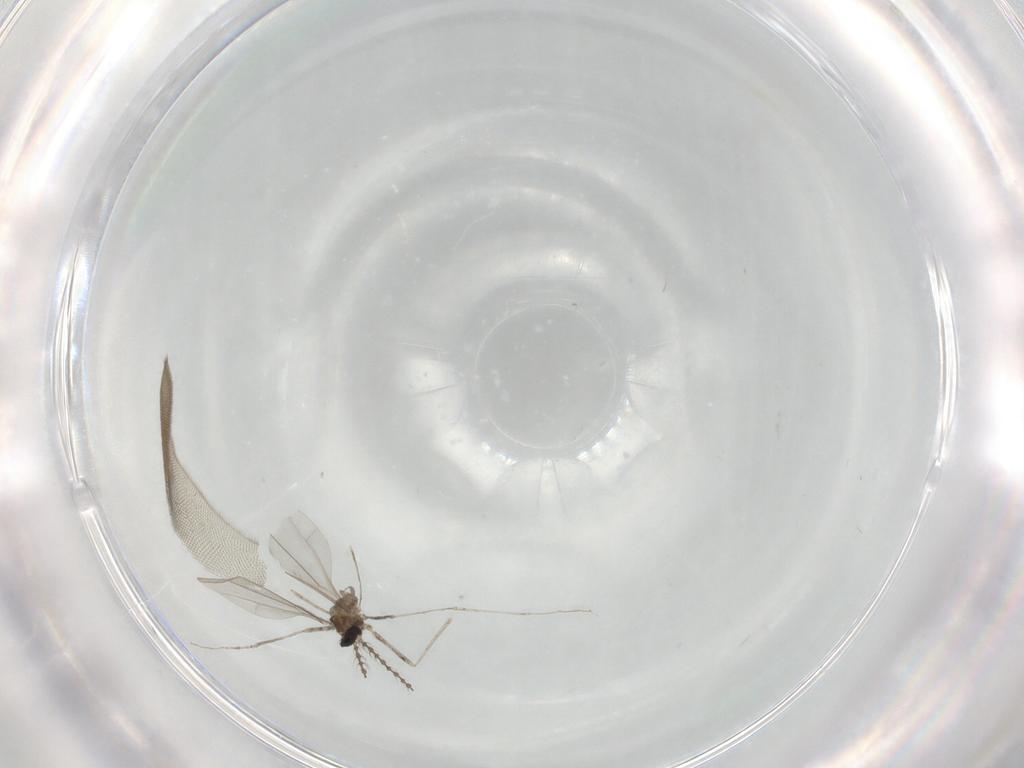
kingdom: Animalia
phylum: Arthropoda
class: Insecta
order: Diptera
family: Cecidomyiidae
